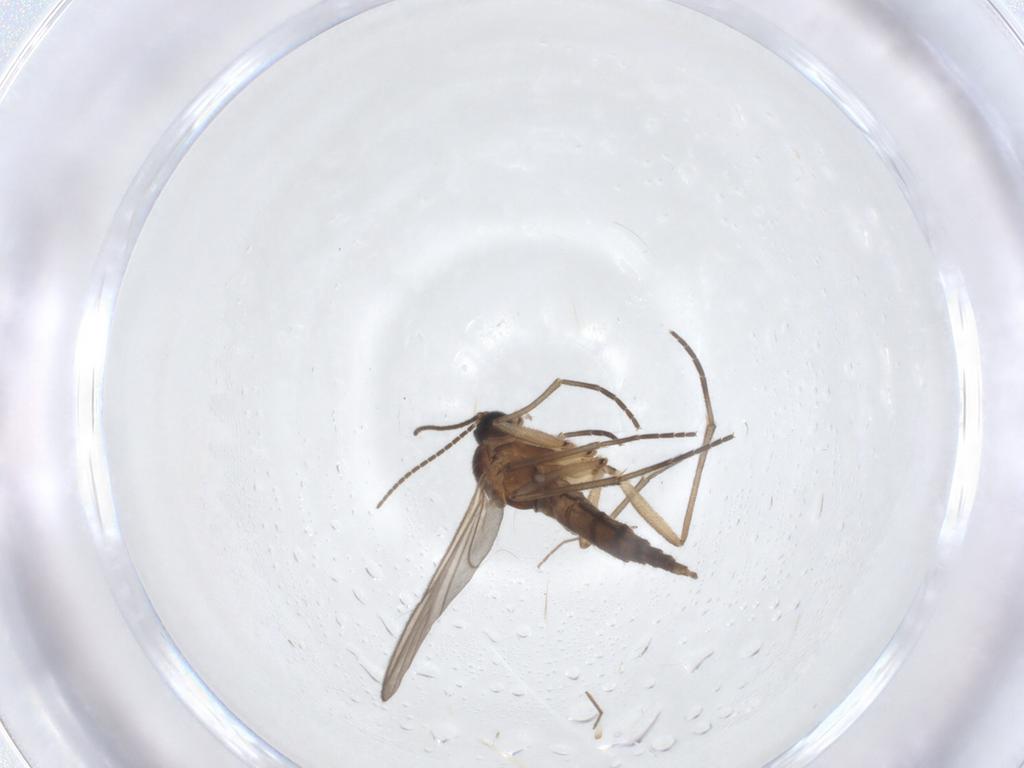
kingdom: Animalia
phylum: Arthropoda
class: Insecta
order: Diptera
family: Sciaridae
